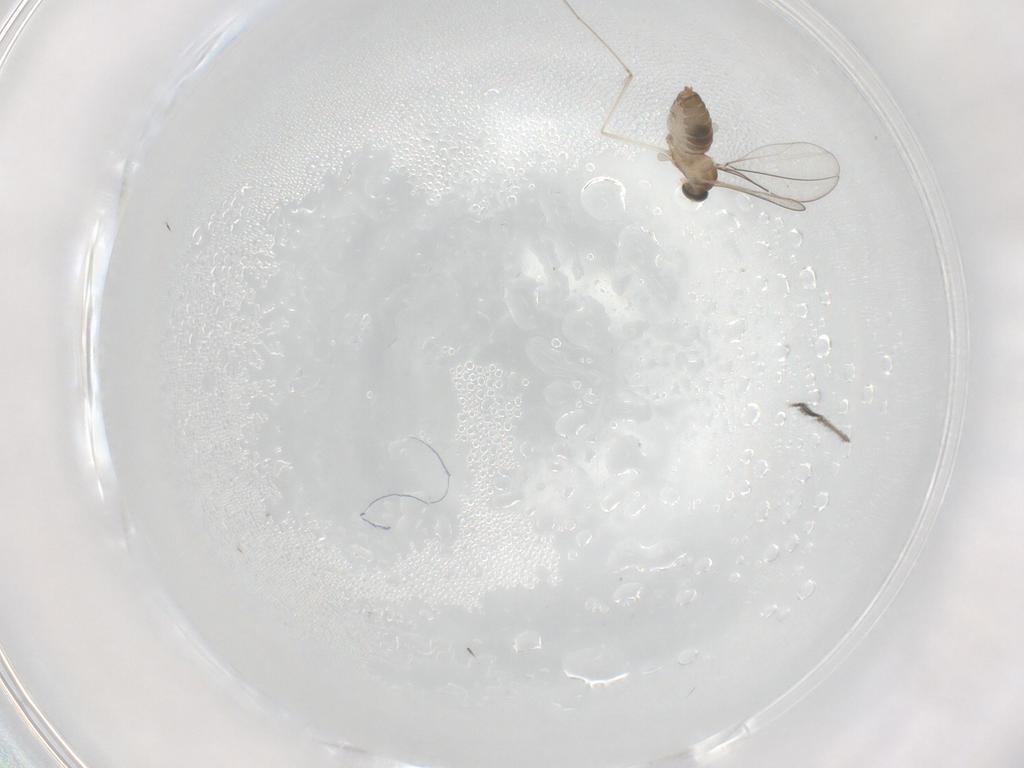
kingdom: Animalia
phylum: Arthropoda
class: Insecta
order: Diptera
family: Cecidomyiidae
